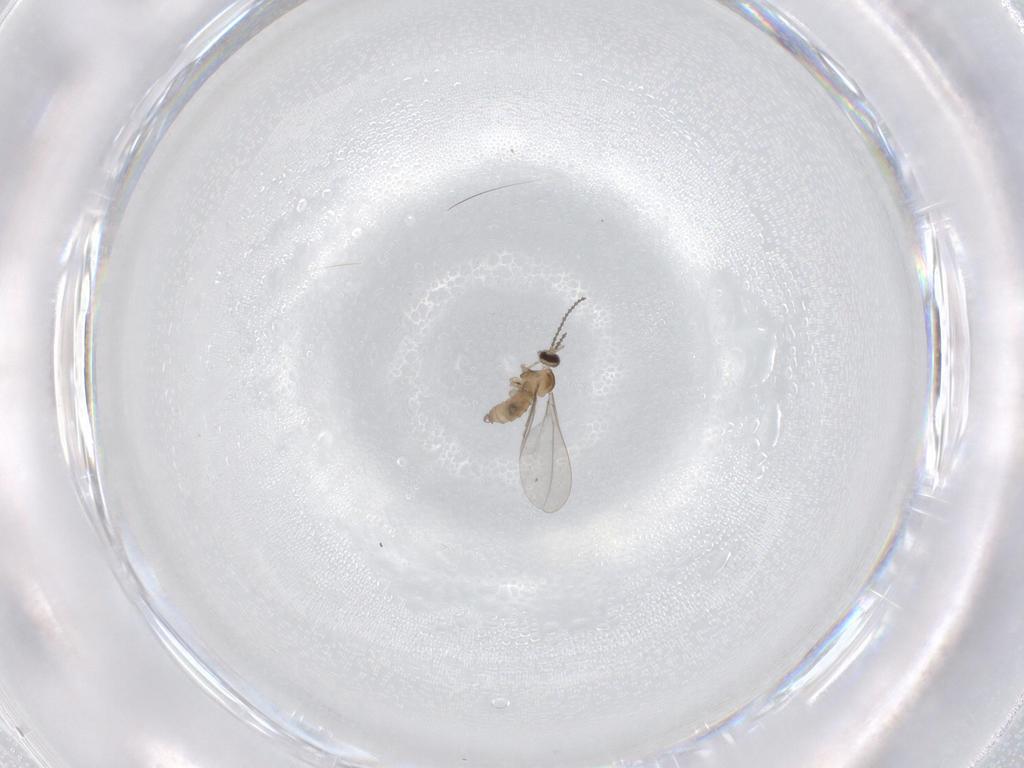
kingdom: Animalia
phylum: Arthropoda
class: Insecta
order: Diptera
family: Cecidomyiidae
